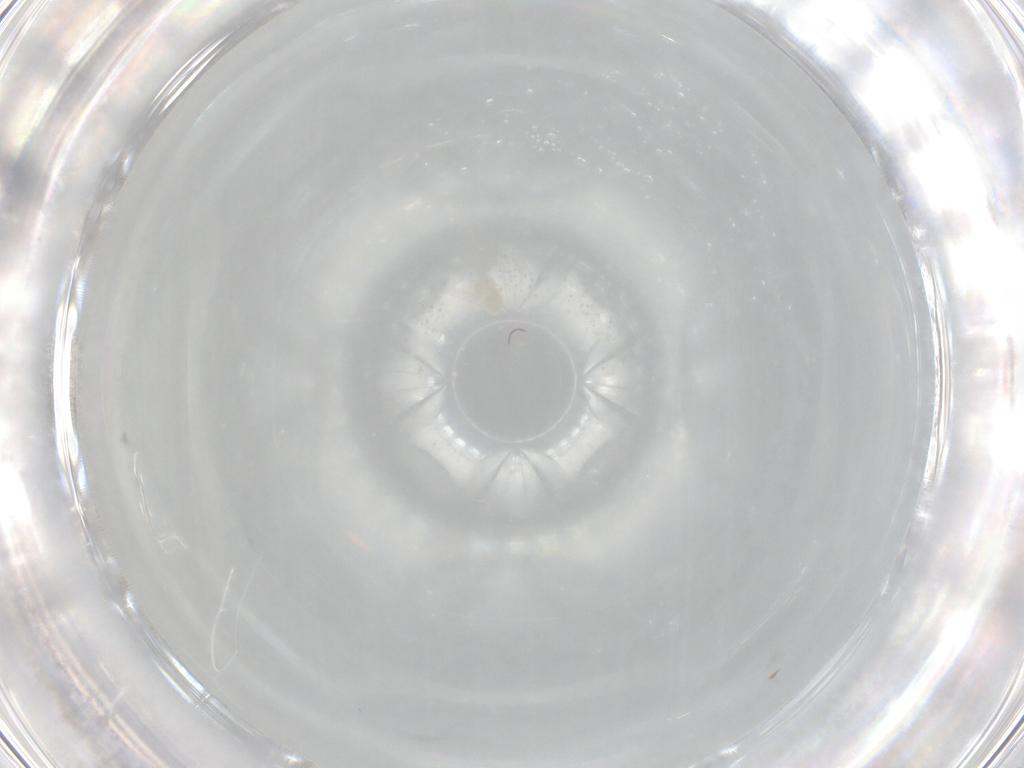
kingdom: Animalia
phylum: Arthropoda
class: Arachnida
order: Trombidiformes
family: Eupodidae
